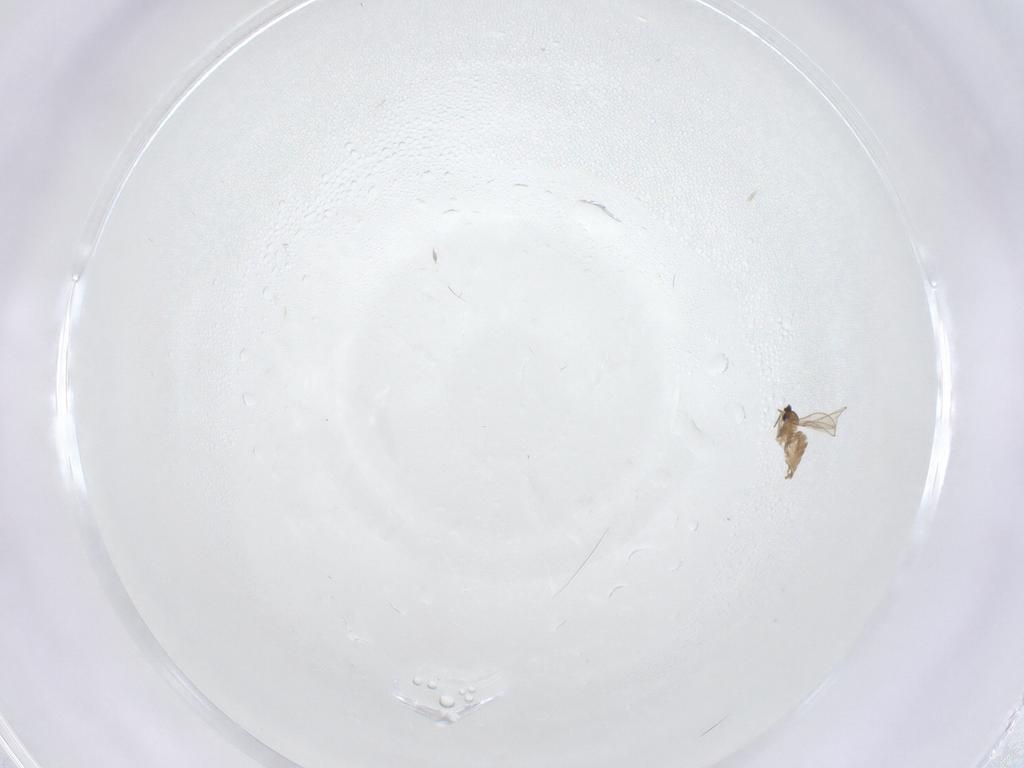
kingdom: Animalia
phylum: Arthropoda
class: Insecta
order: Diptera
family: Cecidomyiidae
